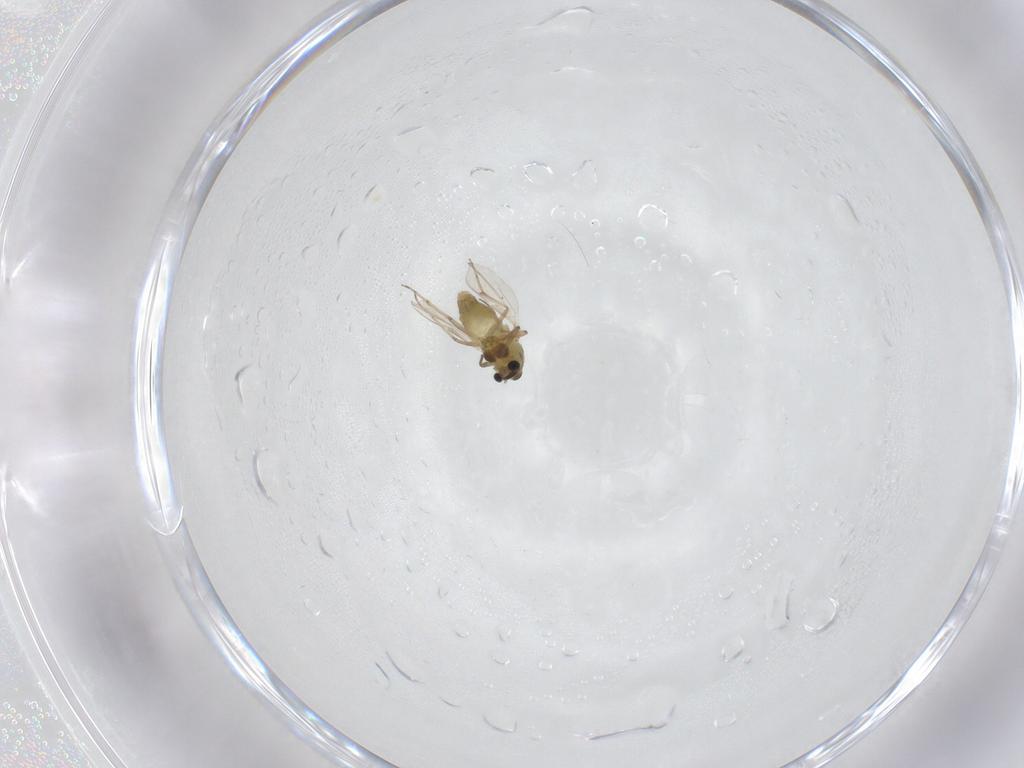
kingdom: Animalia
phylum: Arthropoda
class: Insecta
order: Diptera
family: Chironomidae
